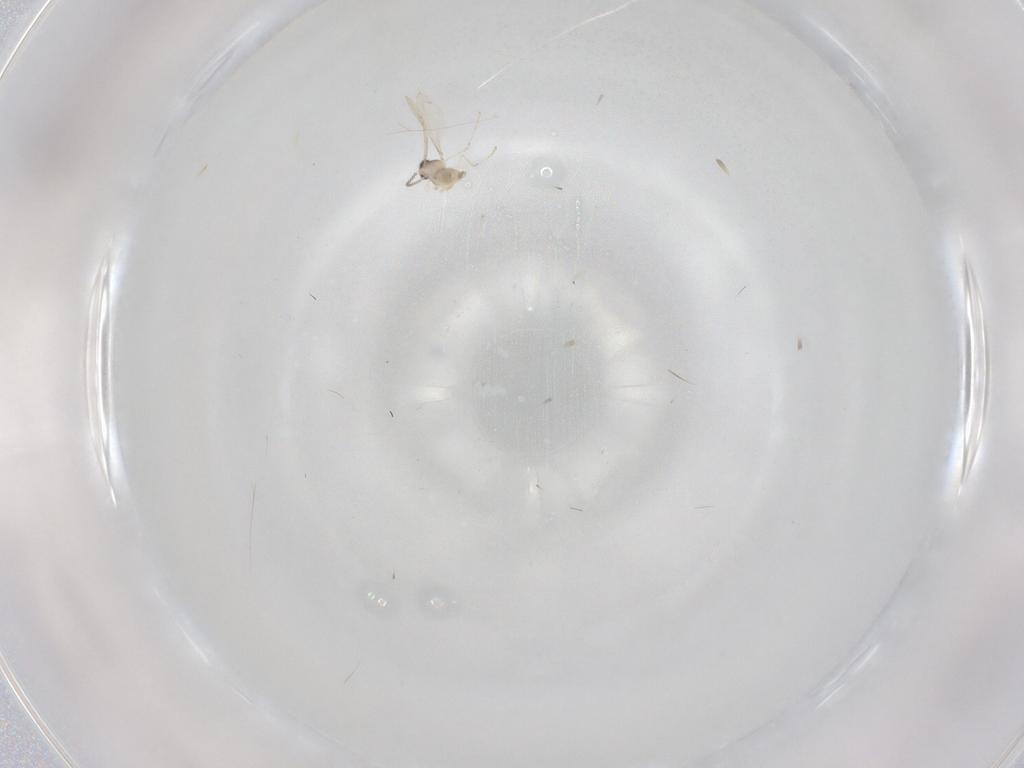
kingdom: Animalia
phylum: Arthropoda
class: Insecta
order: Diptera
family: Cecidomyiidae
